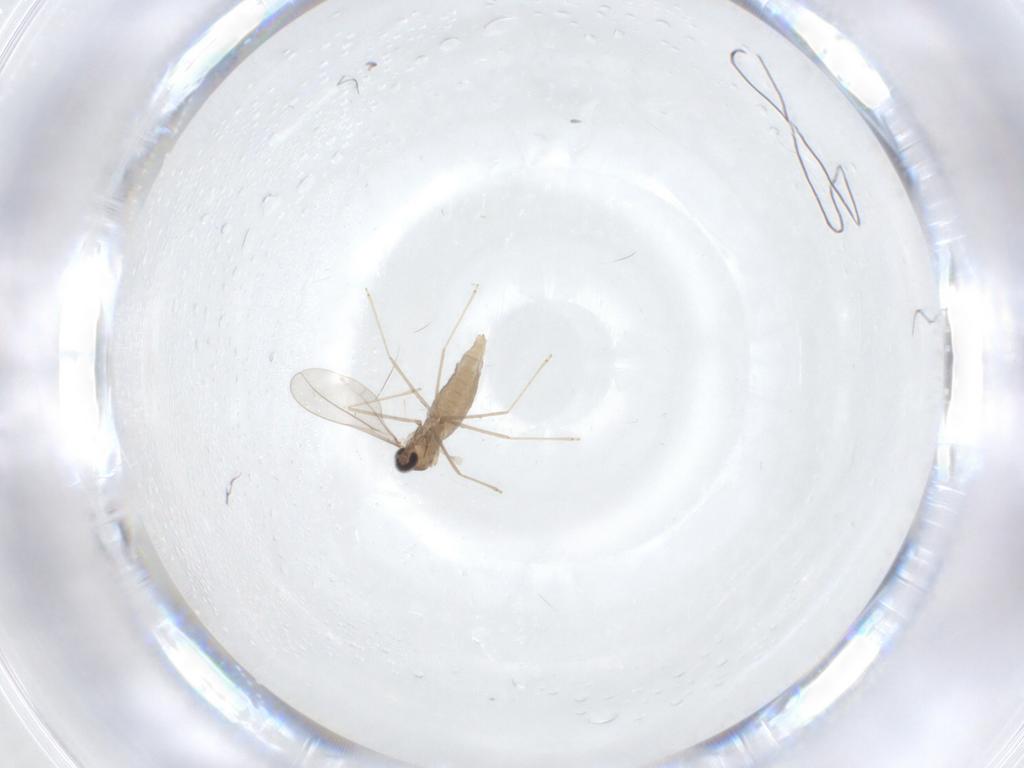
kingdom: Animalia
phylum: Arthropoda
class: Insecta
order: Diptera
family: Cecidomyiidae
